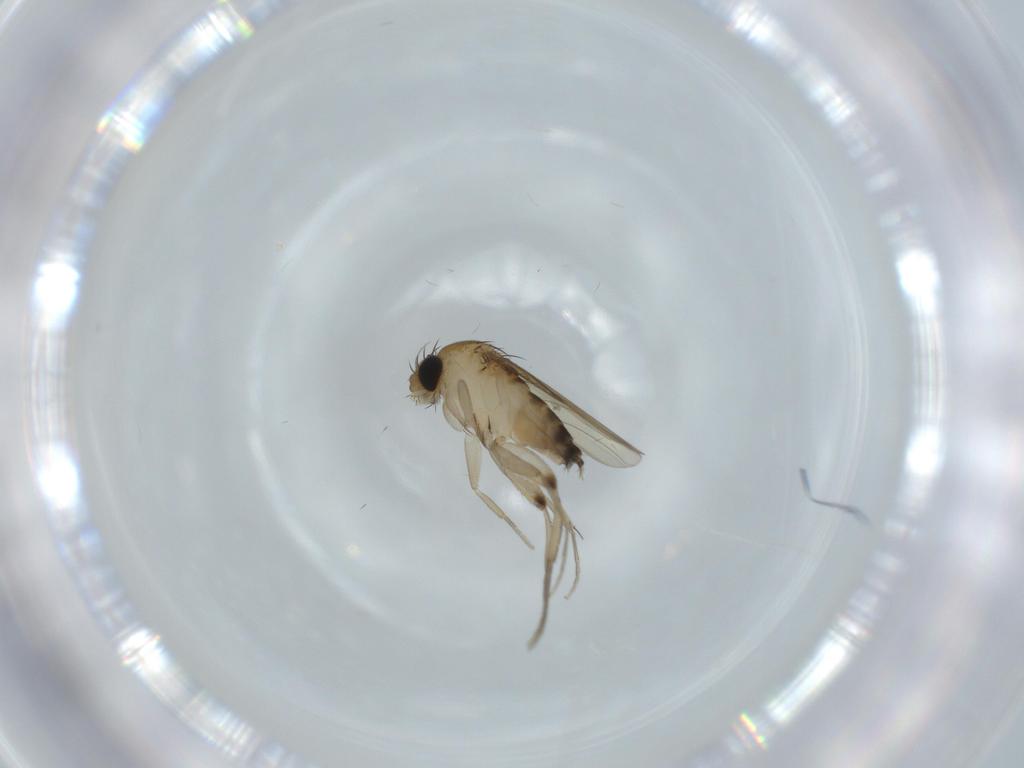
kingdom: Animalia
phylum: Arthropoda
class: Insecta
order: Diptera
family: Phoridae
